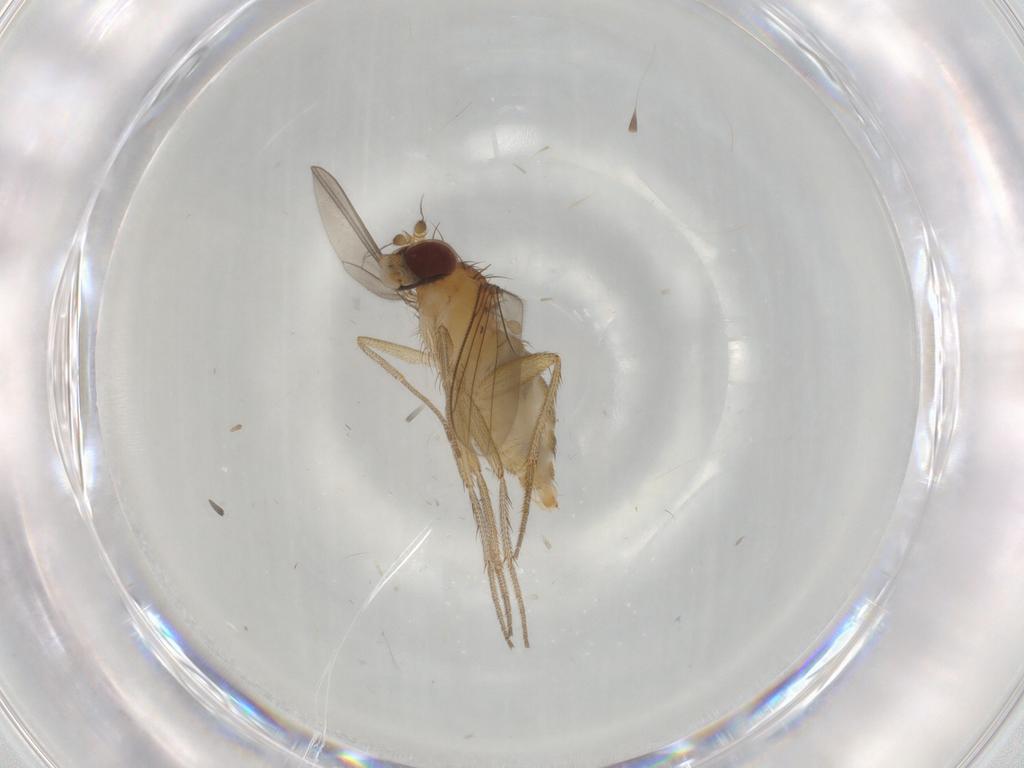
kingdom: Animalia
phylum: Arthropoda
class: Insecta
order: Diptera
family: Dolichopodidae
